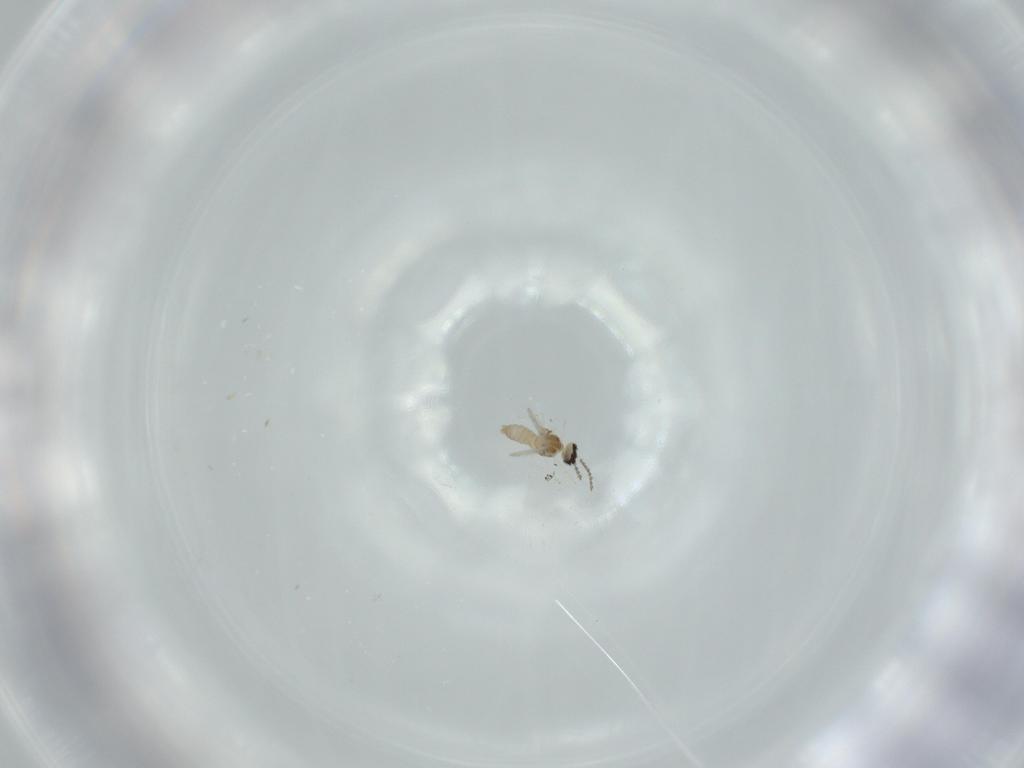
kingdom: Animalia
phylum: Arthropoda
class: Insecta
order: Diptera
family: Cecidomyiidae
